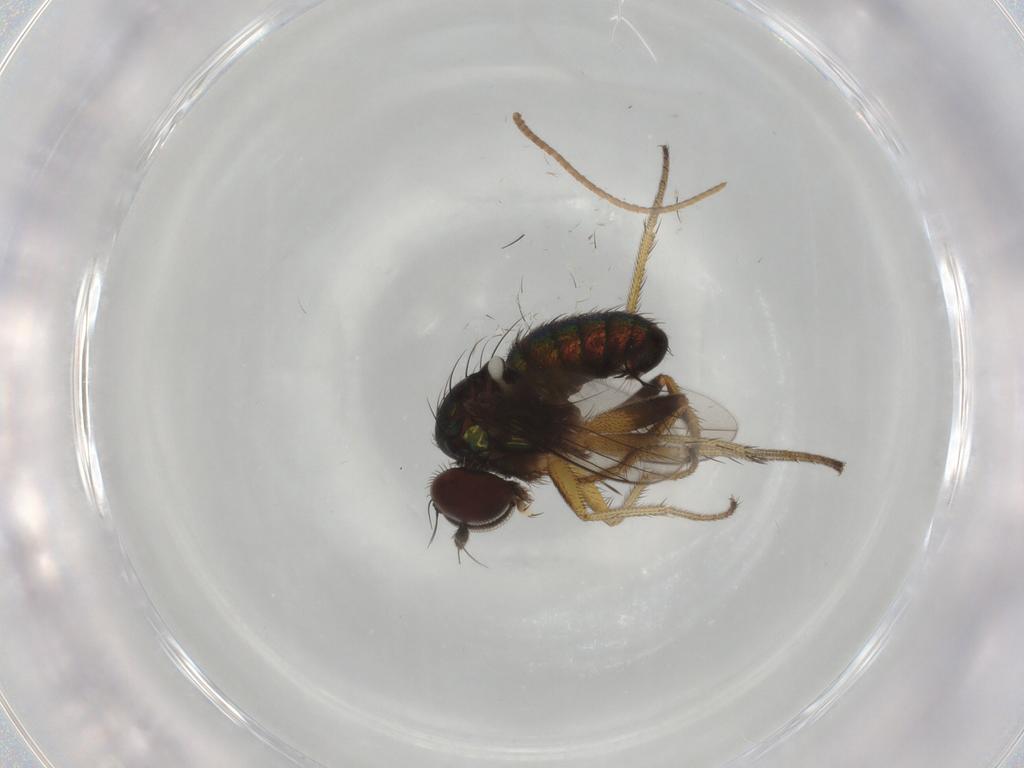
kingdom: Animalia
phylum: Arthropoda
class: Insecta
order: Diptera
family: Dolichopodidae
